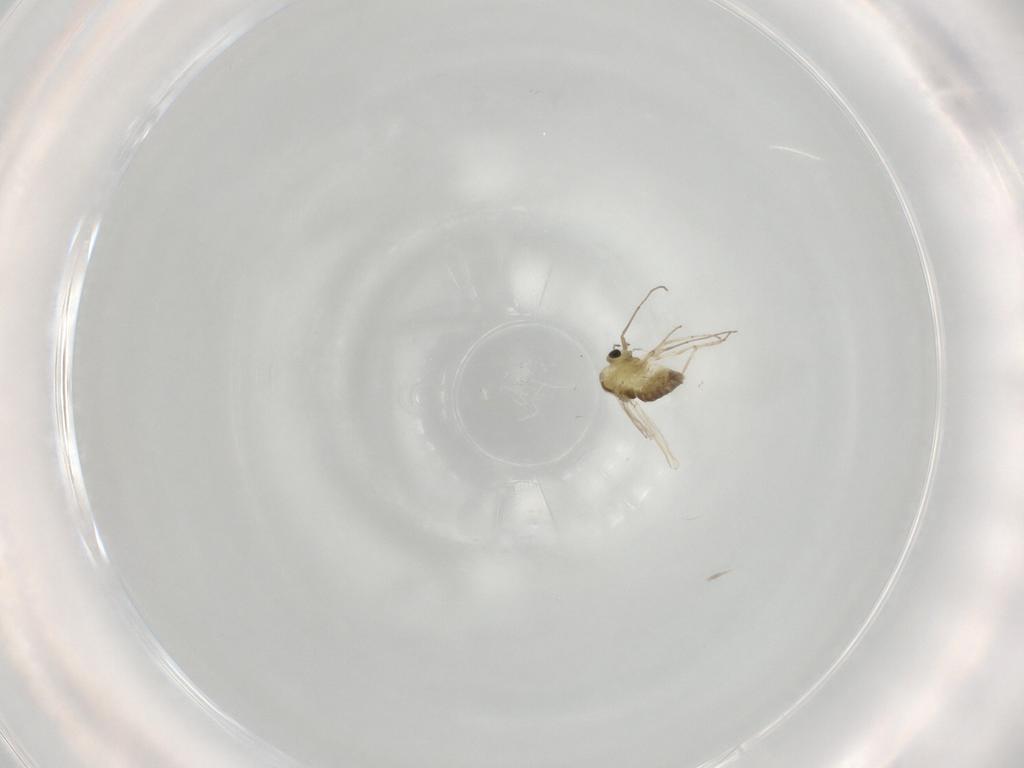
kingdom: Animalia
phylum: Arthropoda
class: Insecta
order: Diptera
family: Chironomidae
